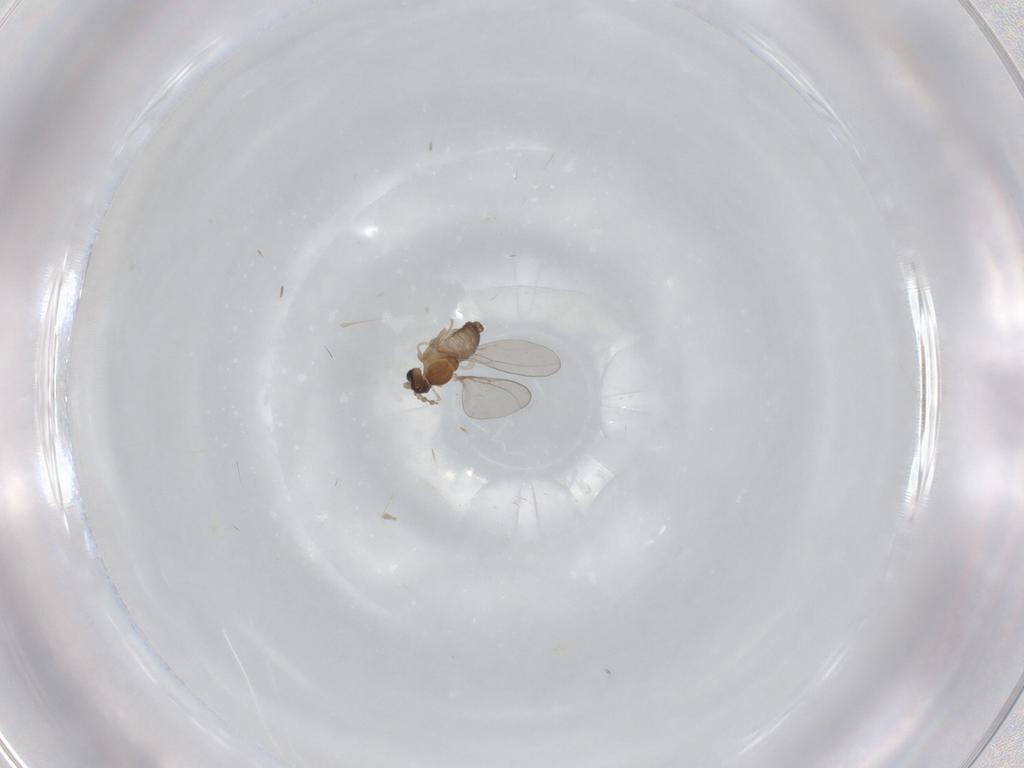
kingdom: Animalia
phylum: Arthropoda
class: Insecta
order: Diptera
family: Cecidomyiidae
